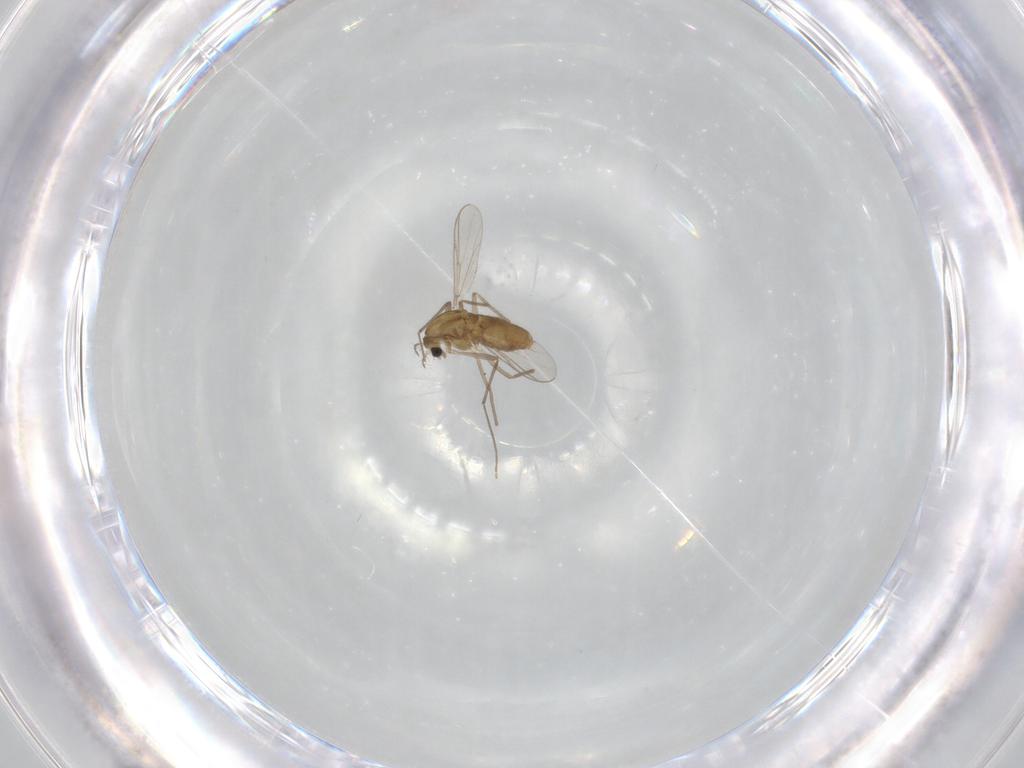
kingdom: Animalia
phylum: Arthropoda
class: Insecta
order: Diptera
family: Chironomidae
